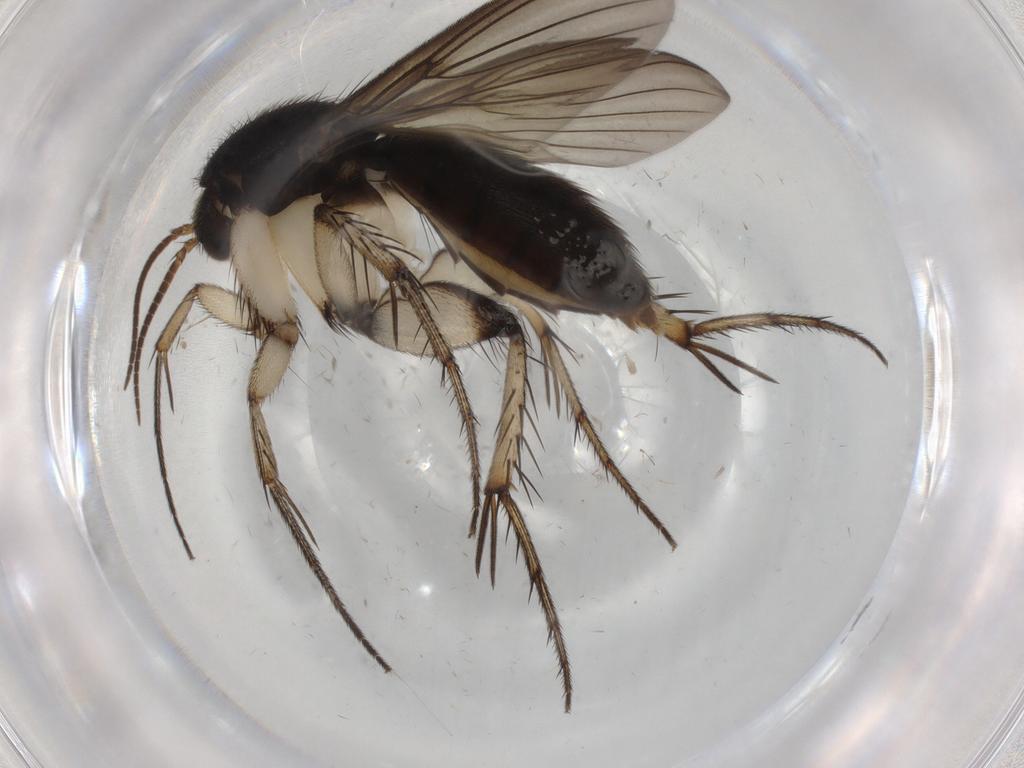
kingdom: Animalia
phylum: Arthropoda
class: Insecta
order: Diptera
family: Mycetophilidae
